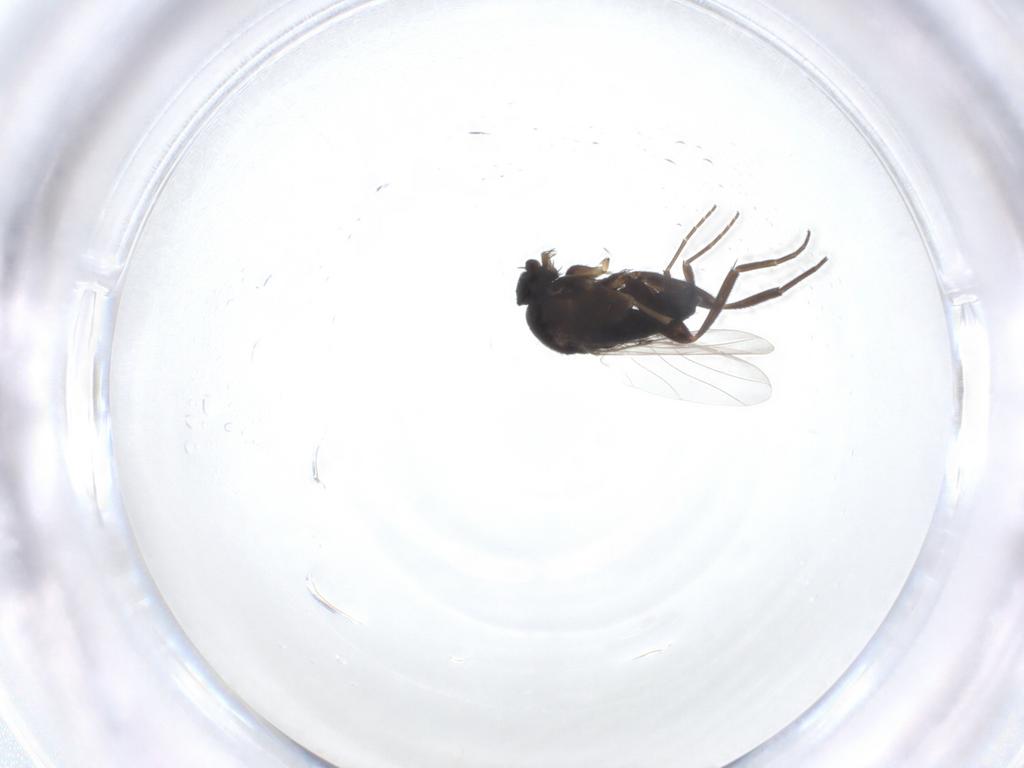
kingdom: Animalia
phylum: Arthropoda
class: Insecta
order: Diptera
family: Phoridae
